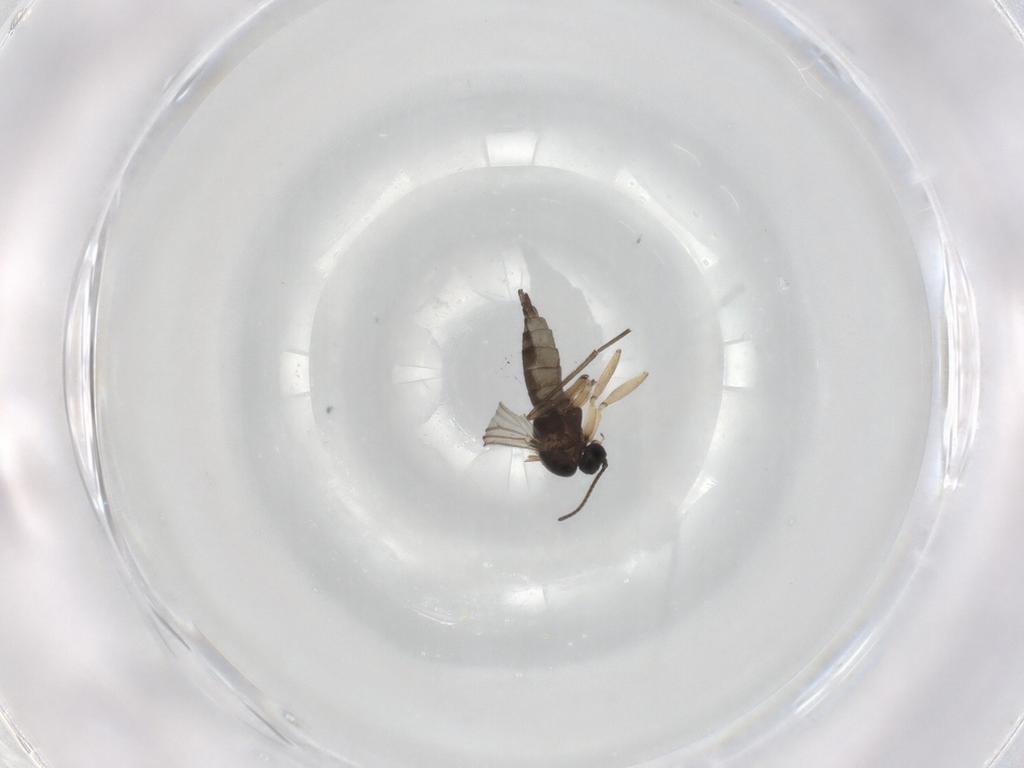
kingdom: Animalia
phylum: Arthropoda
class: Insecta
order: Diptera
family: Sciaridae
